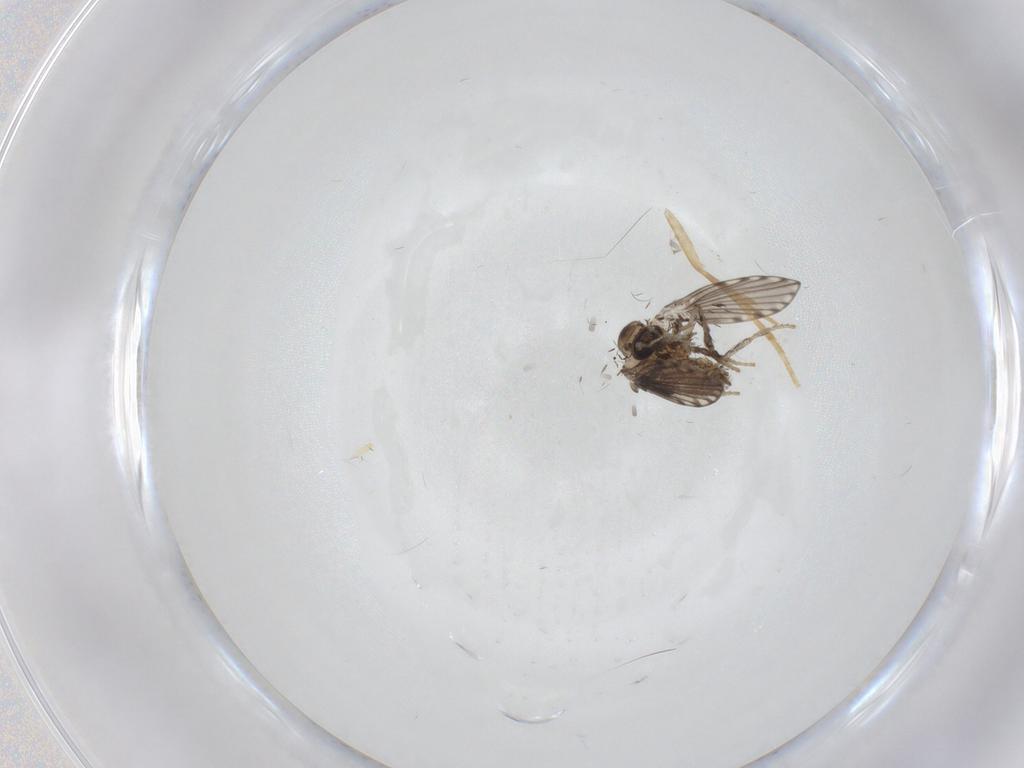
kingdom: Animalia
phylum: Arthropoda
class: Insecta
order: Diptera
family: Psychodidae
